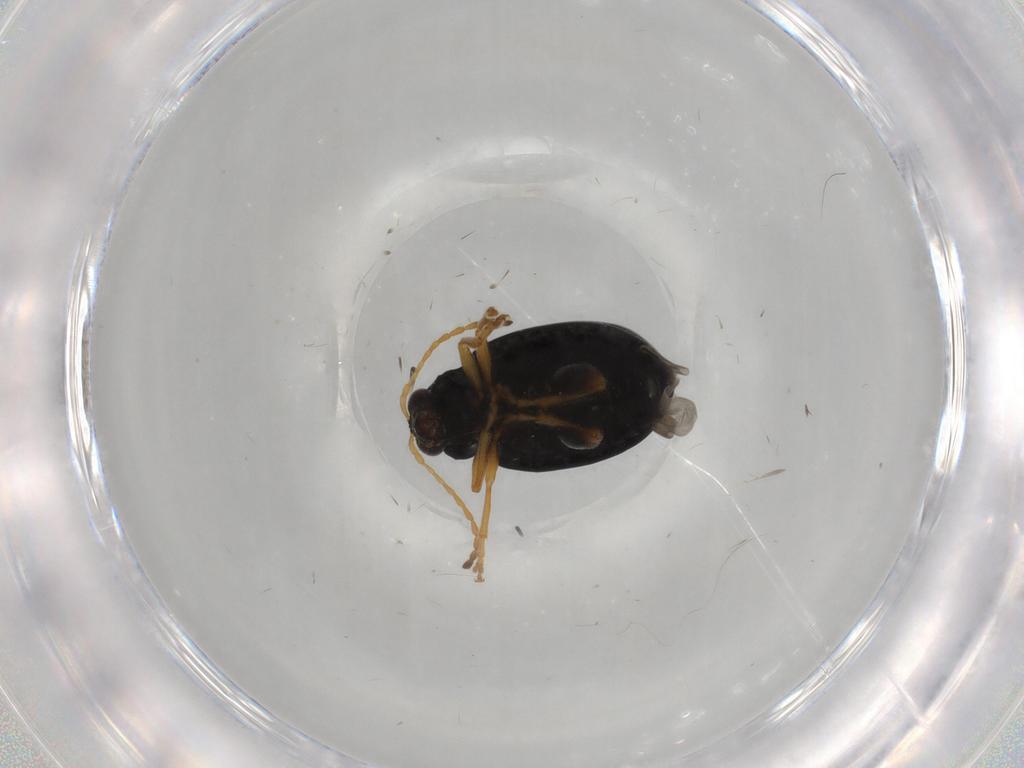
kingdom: Animalia
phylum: Arthropoda
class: Insecta
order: Coleoptera
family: Chrysomelidae
